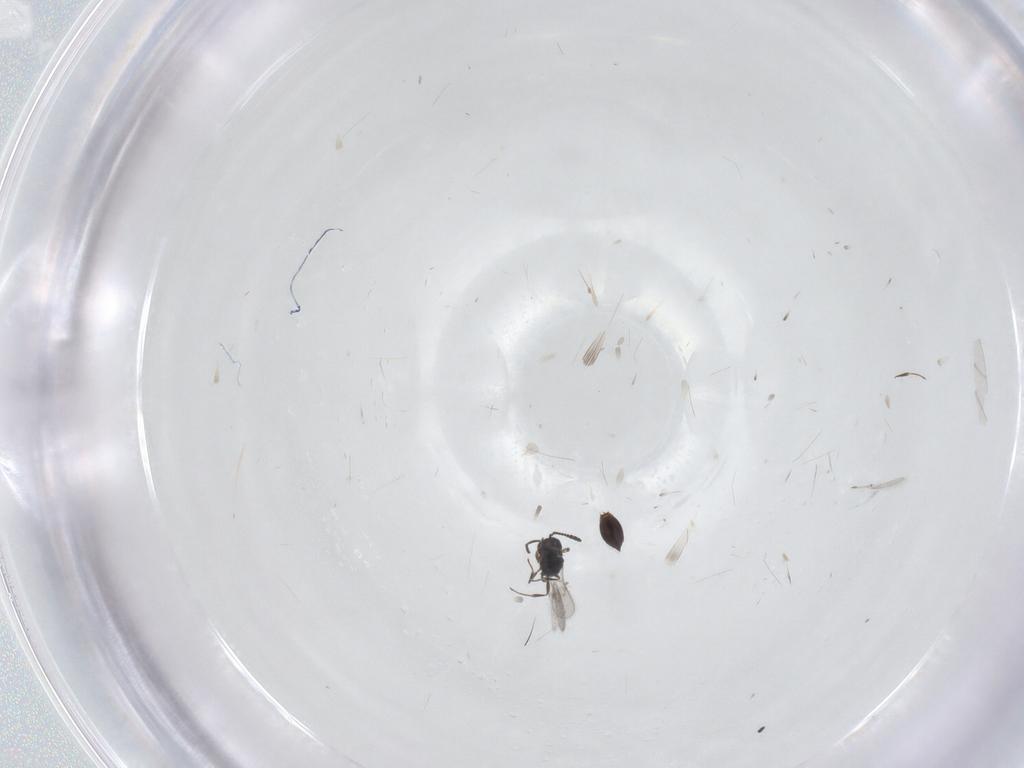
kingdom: Animalia
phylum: Arthropoda
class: Insecta
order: Hymenoptera
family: Scelionidae
